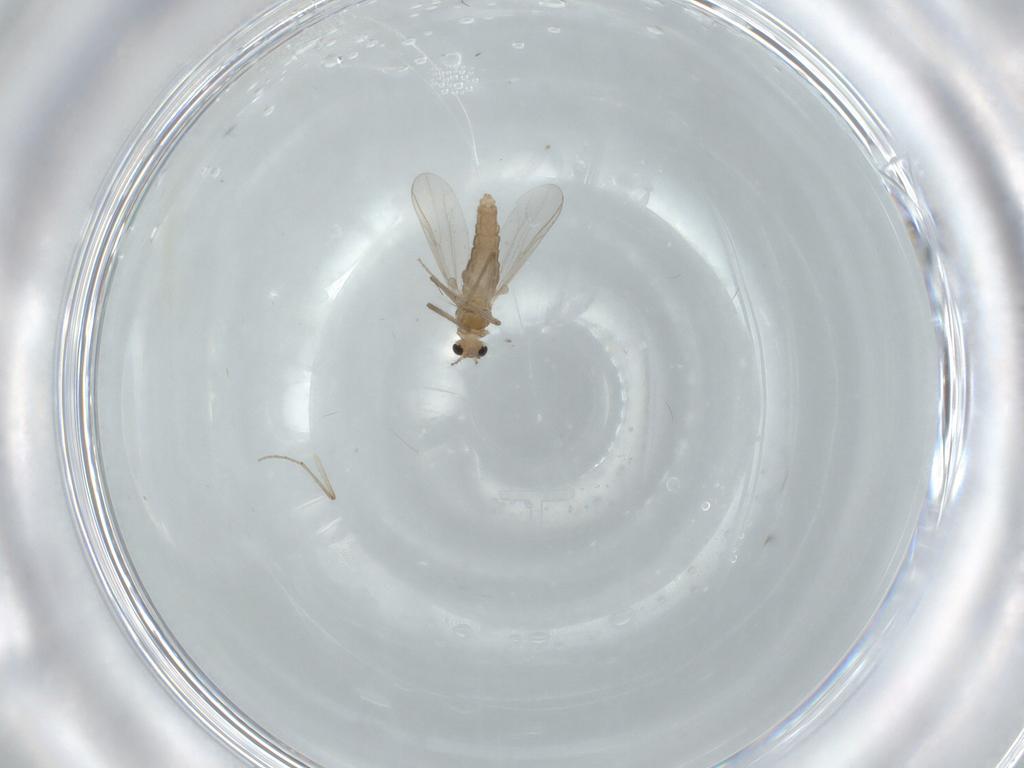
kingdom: Animalia
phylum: Arthropoda
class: Insecta
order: Diptera
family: Chironomidae
